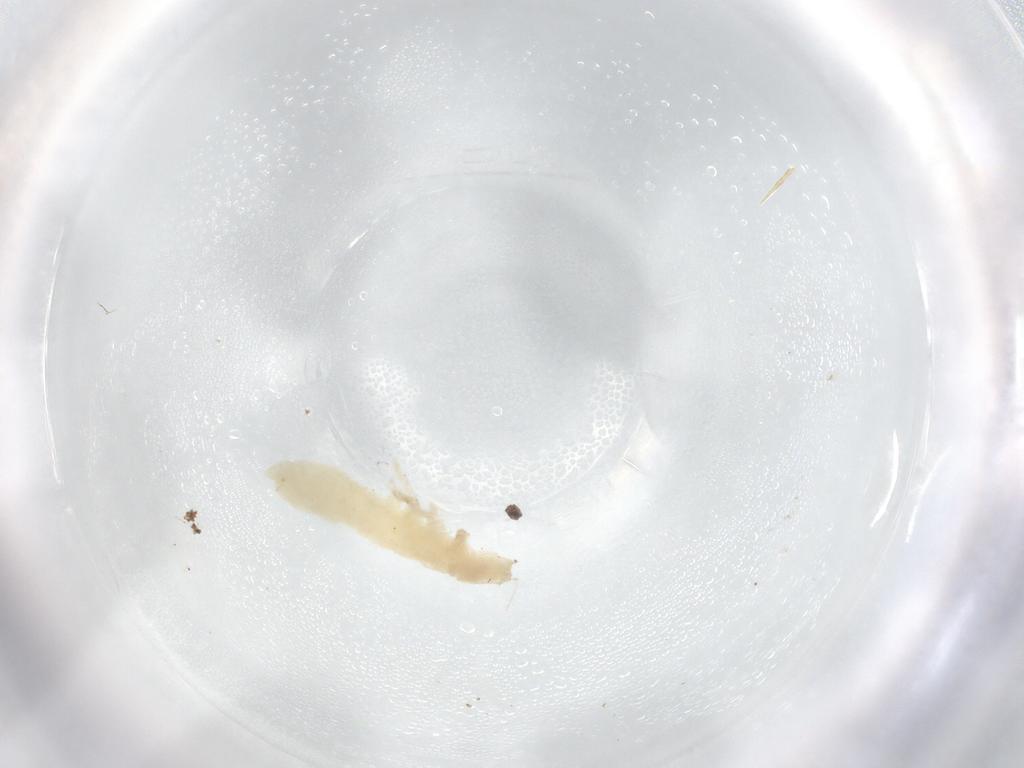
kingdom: Animalia
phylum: Arthropoda
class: Collembola
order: Poduromorpha
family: Onychiuridae
